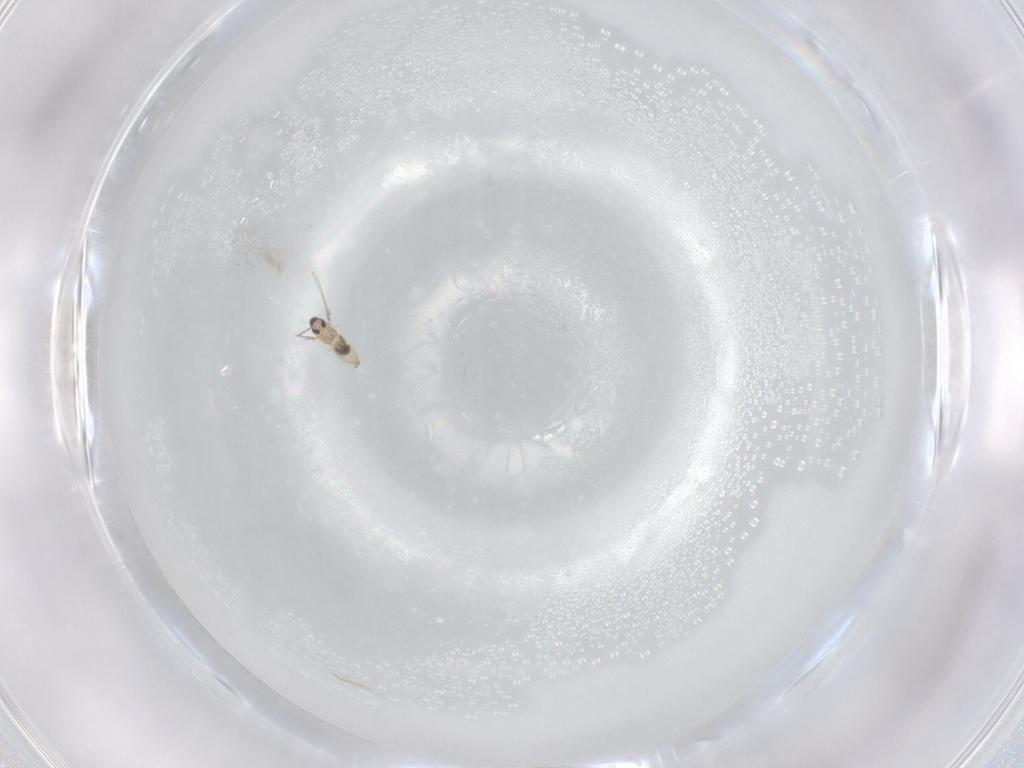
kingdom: Animalia
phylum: Arthropoda
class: Insecta
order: Diptera
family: Cecidomyiidae
